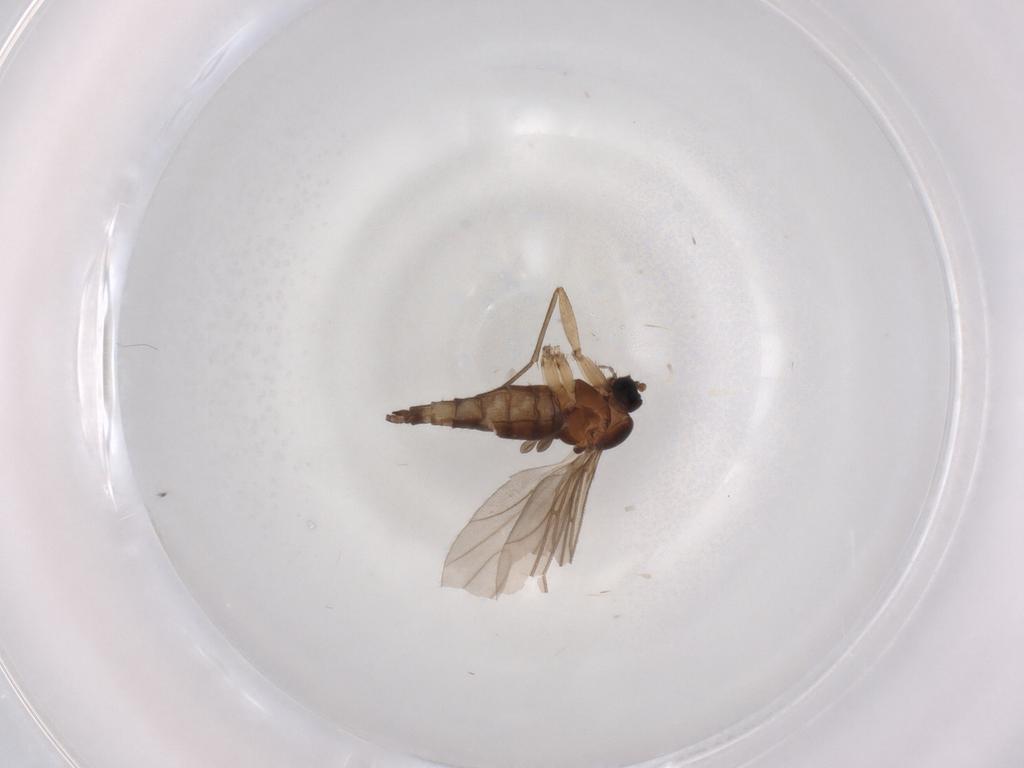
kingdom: Animalia
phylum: Arthropoda
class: Insecta
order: Diptera
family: Sciaridae
